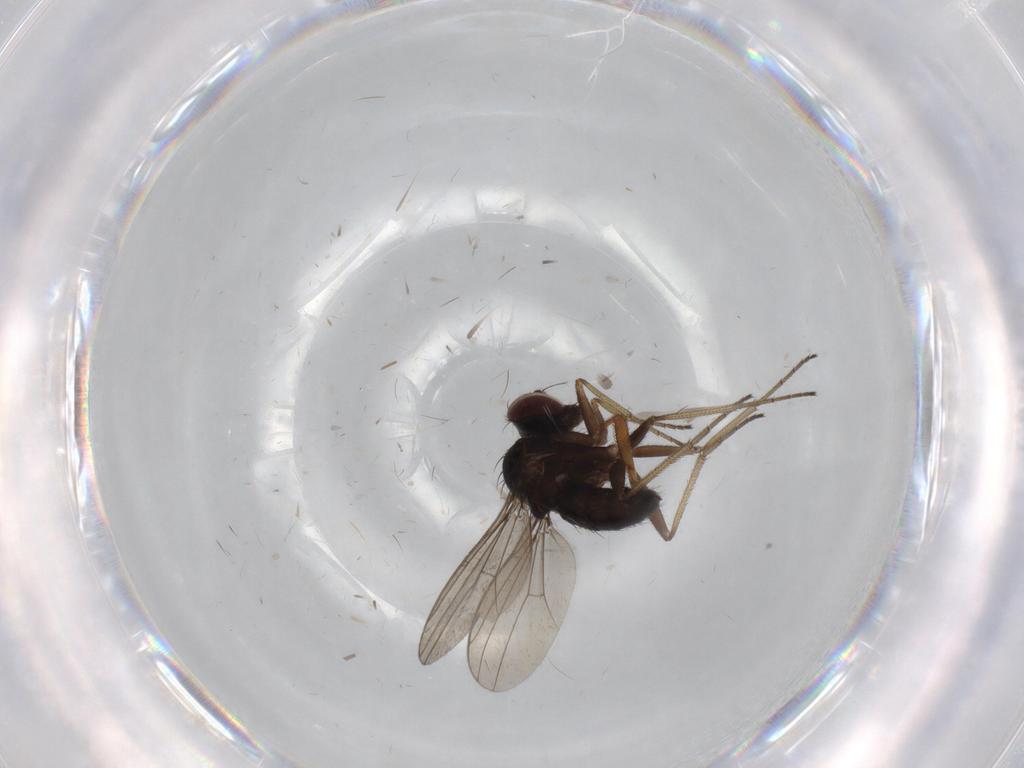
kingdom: Animalia
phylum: Arthropoda
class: Insecta
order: Diptera
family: Dolichopodidae
